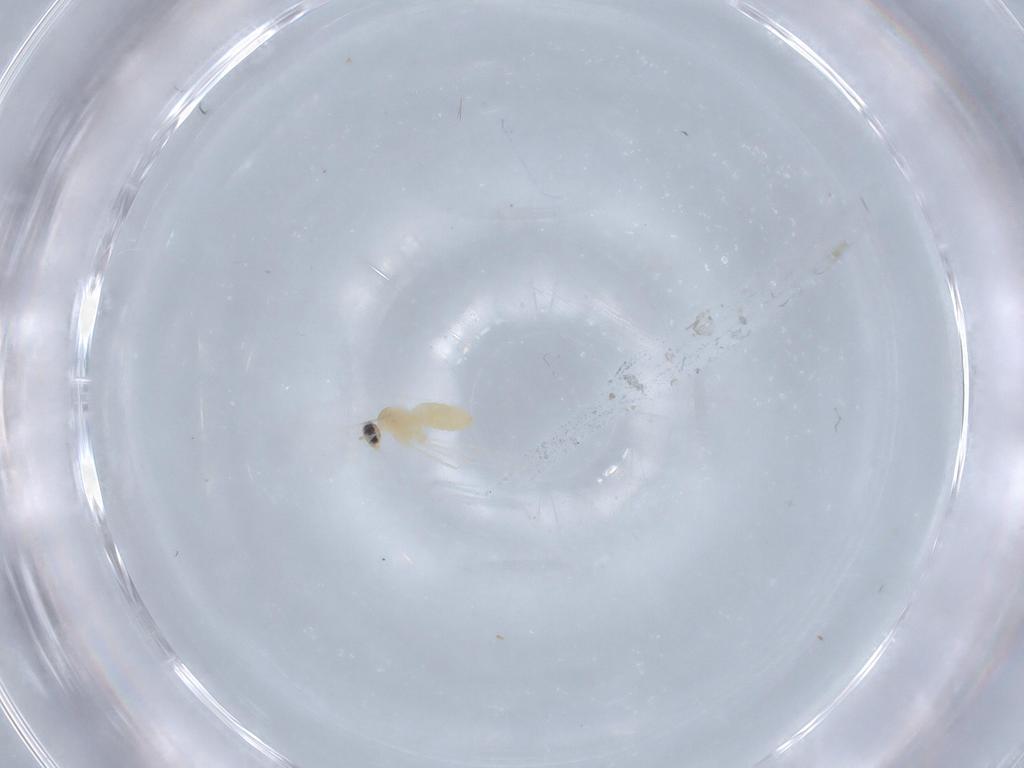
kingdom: Animalia
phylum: Arthropoda
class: Insecta
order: Diptera
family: Cecidomyiidae
